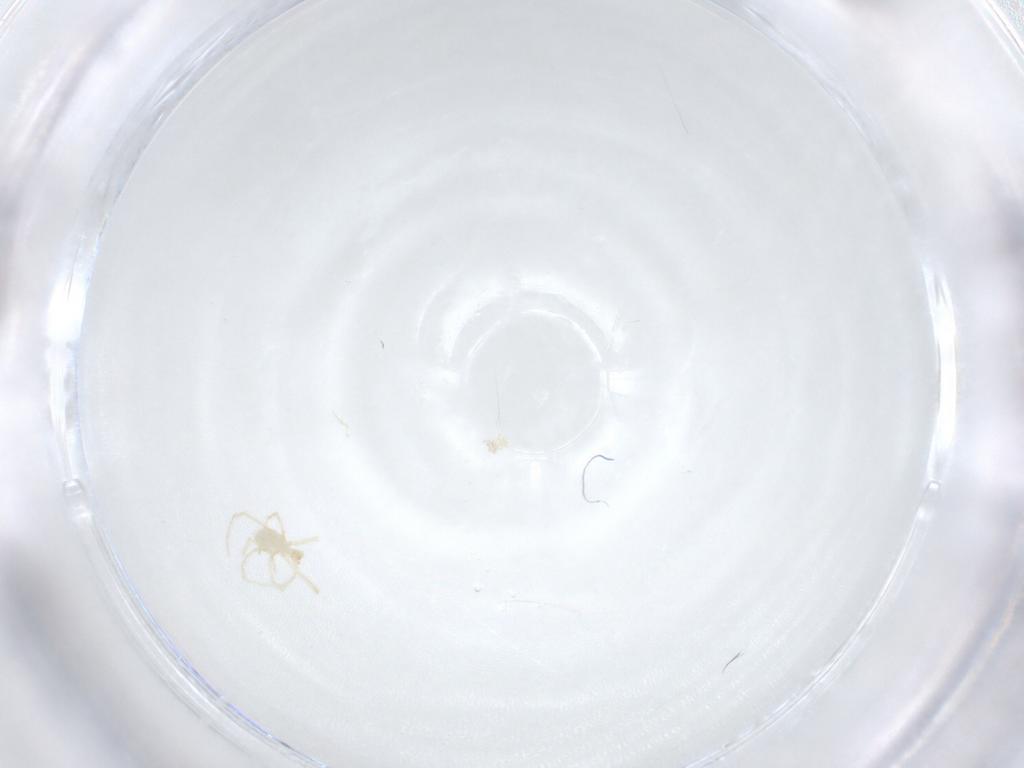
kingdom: Animalia
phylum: Arthropoda
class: Arachnida
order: Trombidiformes
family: Erythraeidae
